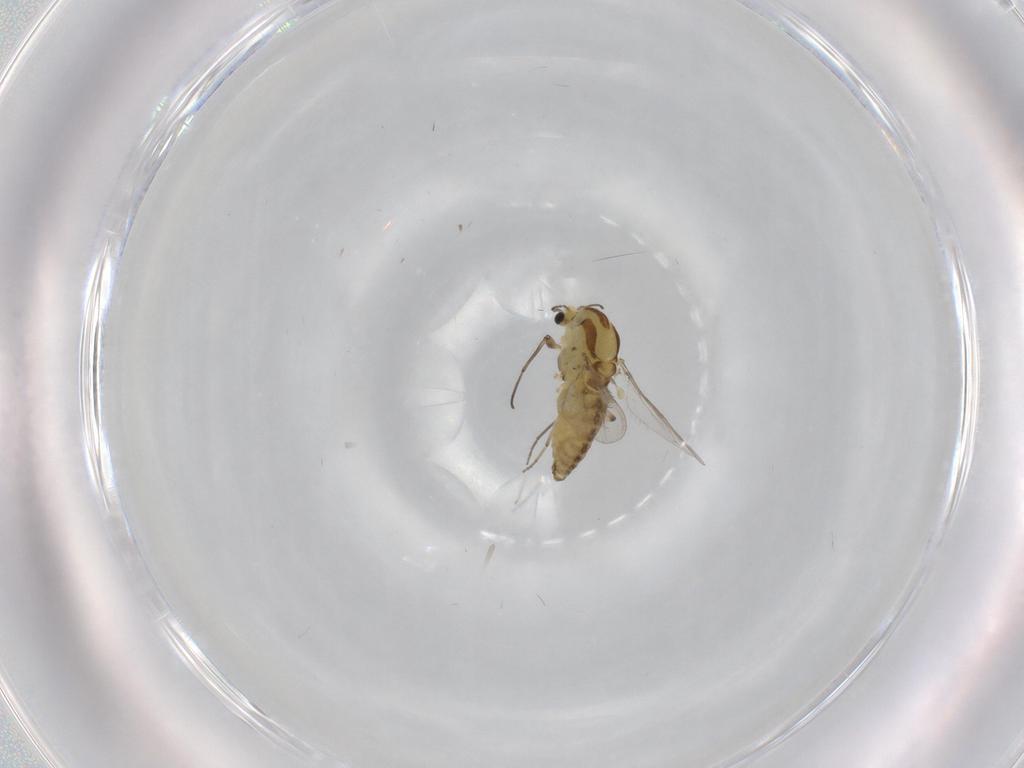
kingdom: Animalia
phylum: Arthropoda
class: Insecta
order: Diptera
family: Chironomidae
